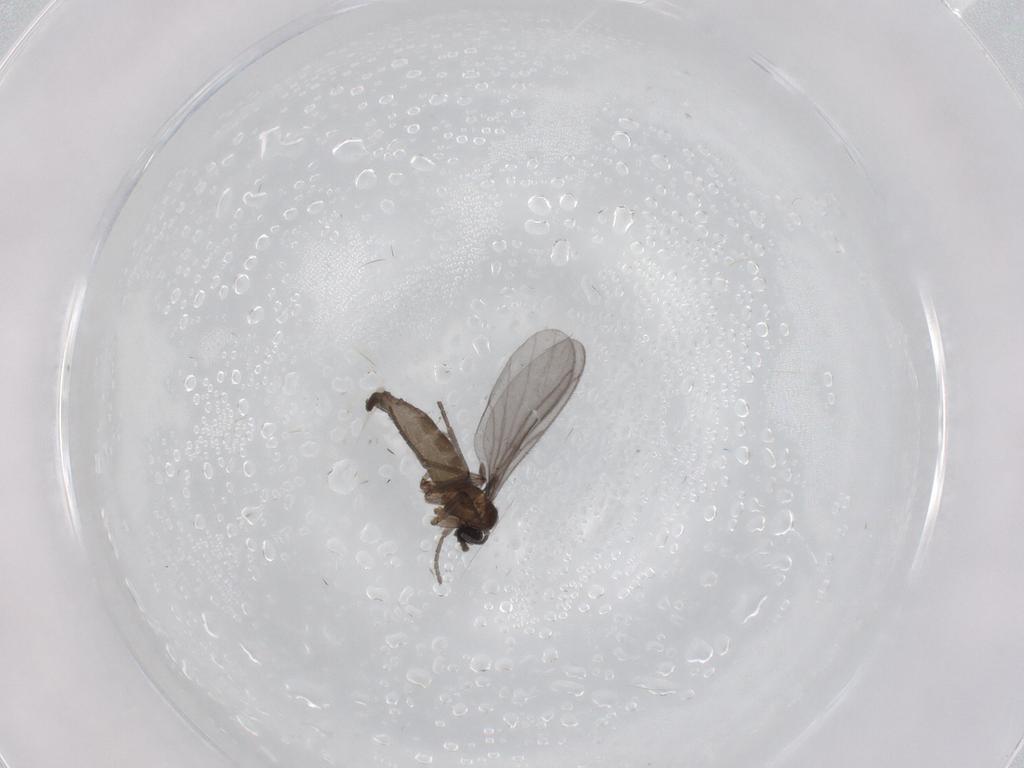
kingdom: Animalia
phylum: Arthropoda
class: Insecta
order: Diptera
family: Sciaridae
